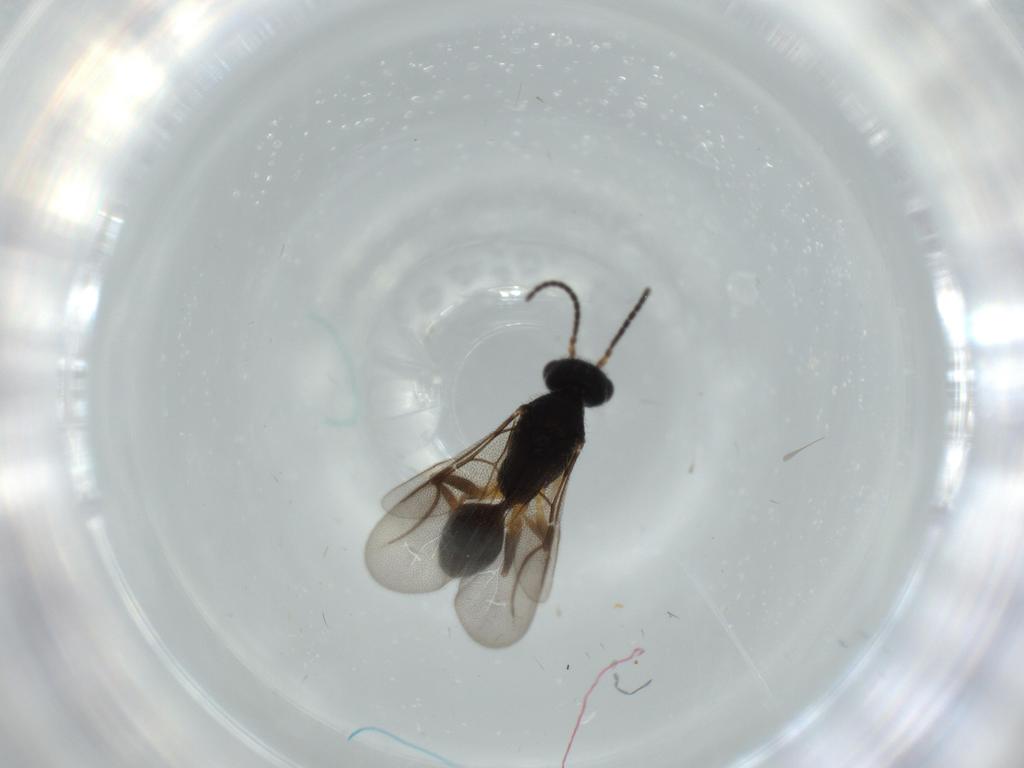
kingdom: Animalia
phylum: Arthropoda
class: Insecta
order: Hymenoptera
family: Bethylidae
